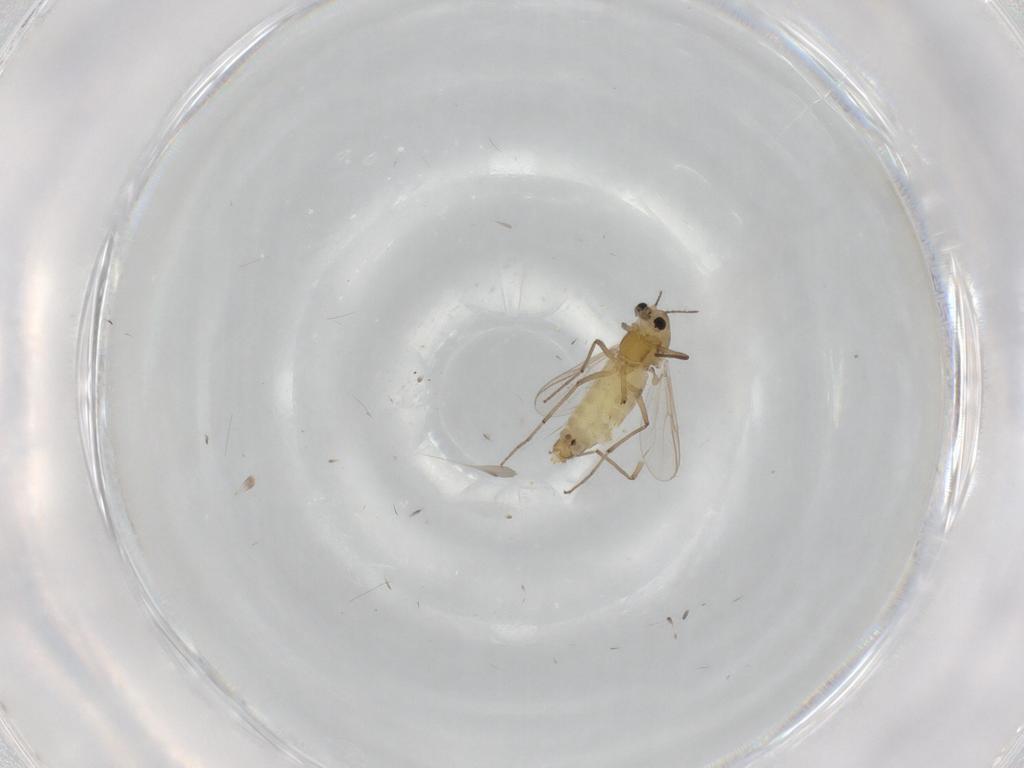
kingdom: Animalia
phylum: Arthropoda
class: Insecta
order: Diptera
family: Chironomidae
